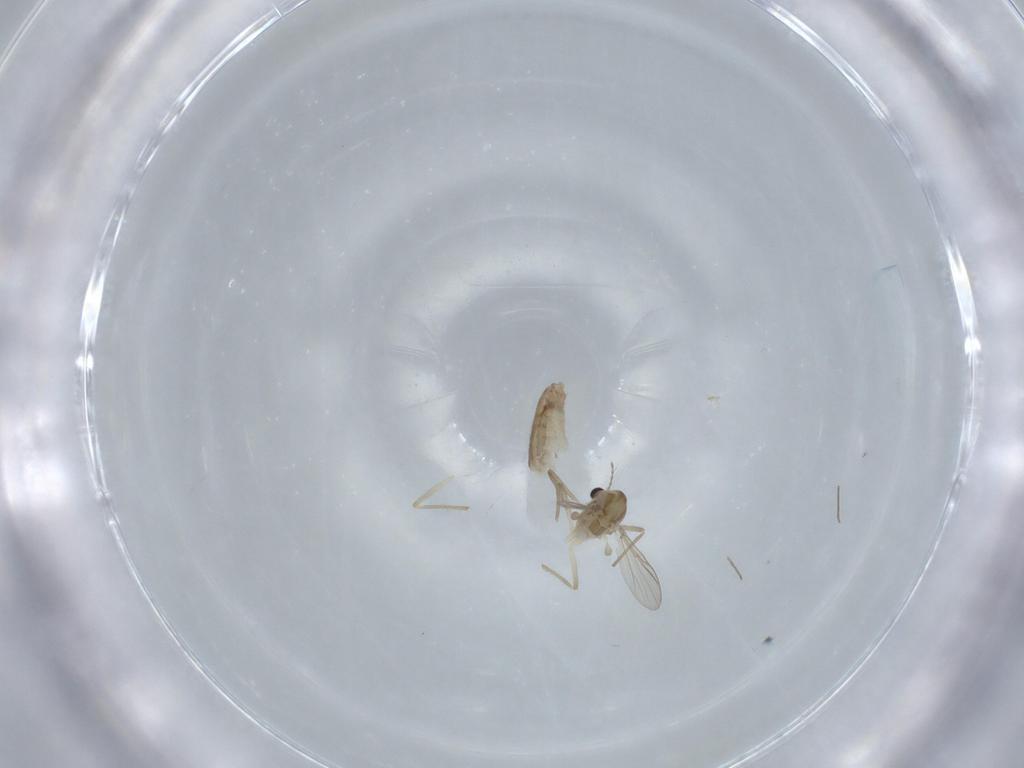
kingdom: Animalia
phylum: Arthropoda
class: Insecta
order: Diptera
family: Chironomidae
